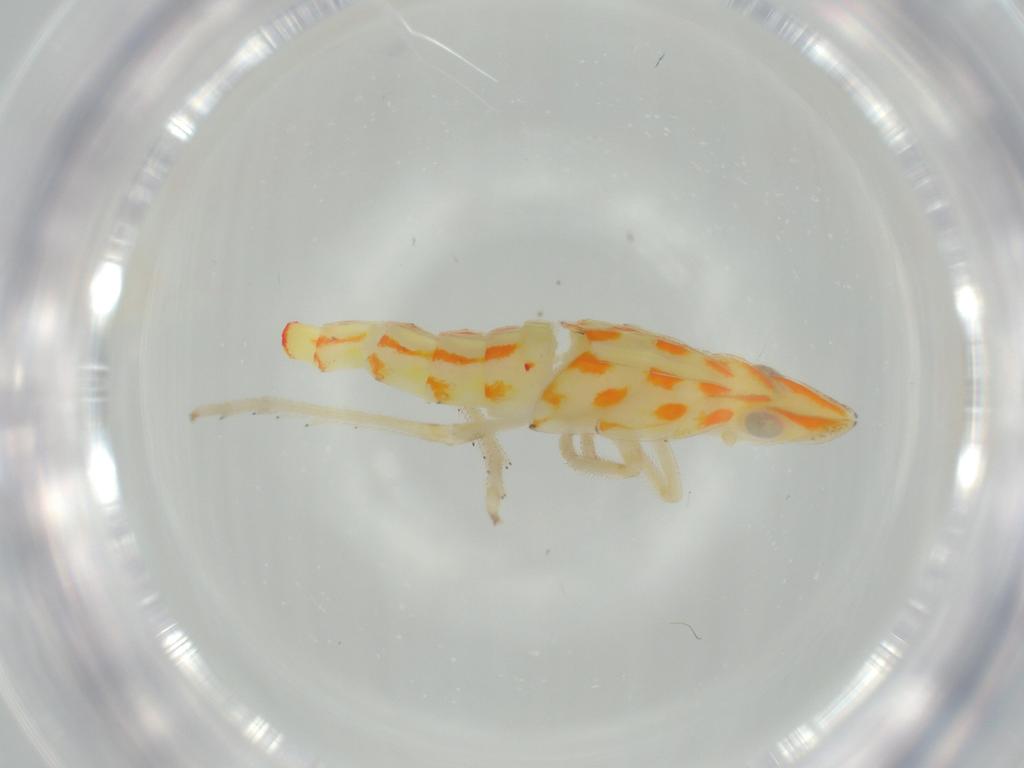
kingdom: Animalia
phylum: Arthropoda
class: Insecta
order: Hemiptera
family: Tropiduchidae
